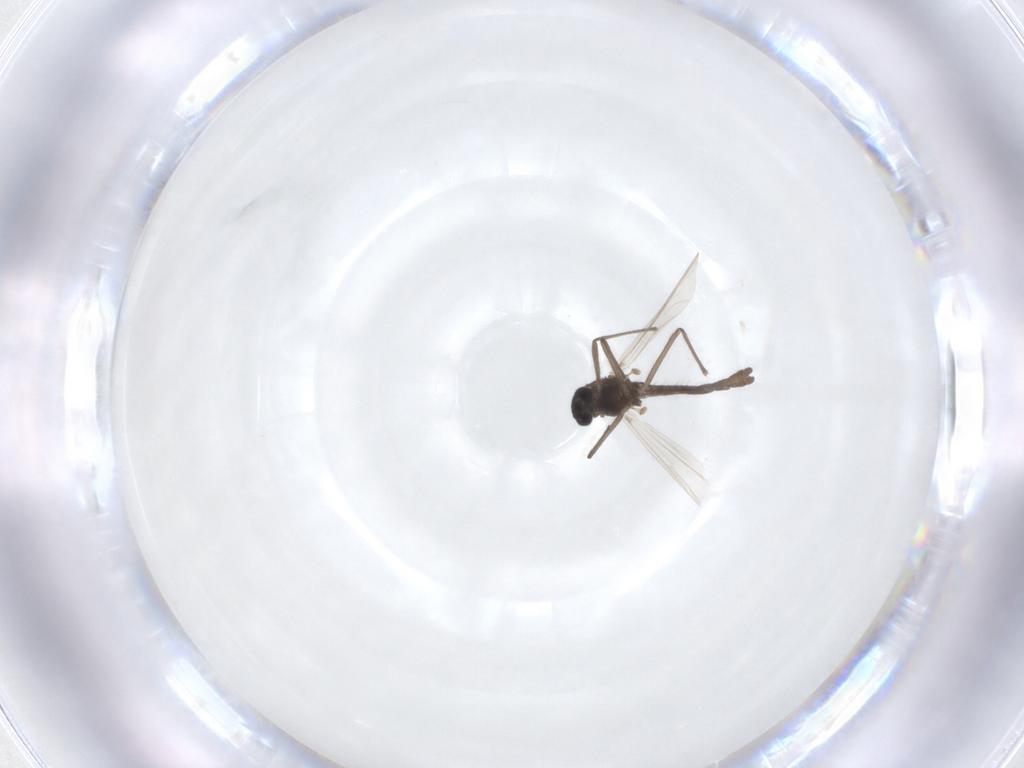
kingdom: Animalia
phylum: Arthropoda
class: Insecta
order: Diptera
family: Chironomidae
